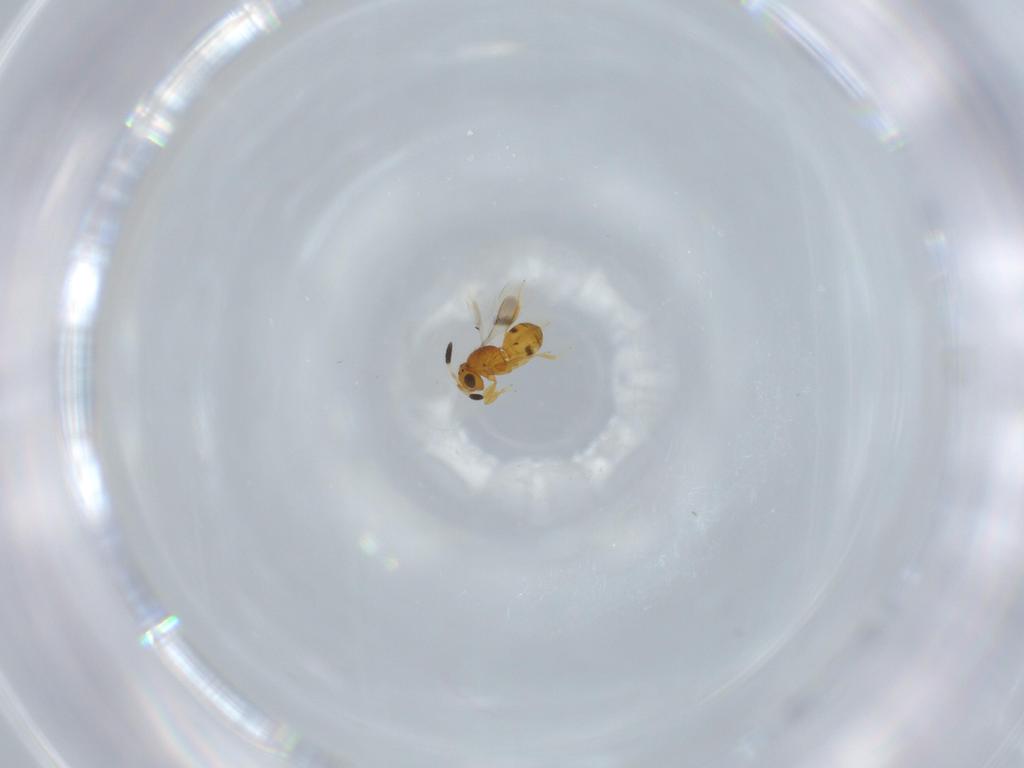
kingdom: Animalia
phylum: Arthropoda
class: Insecta
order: Hymenoptera
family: Scelionidae
